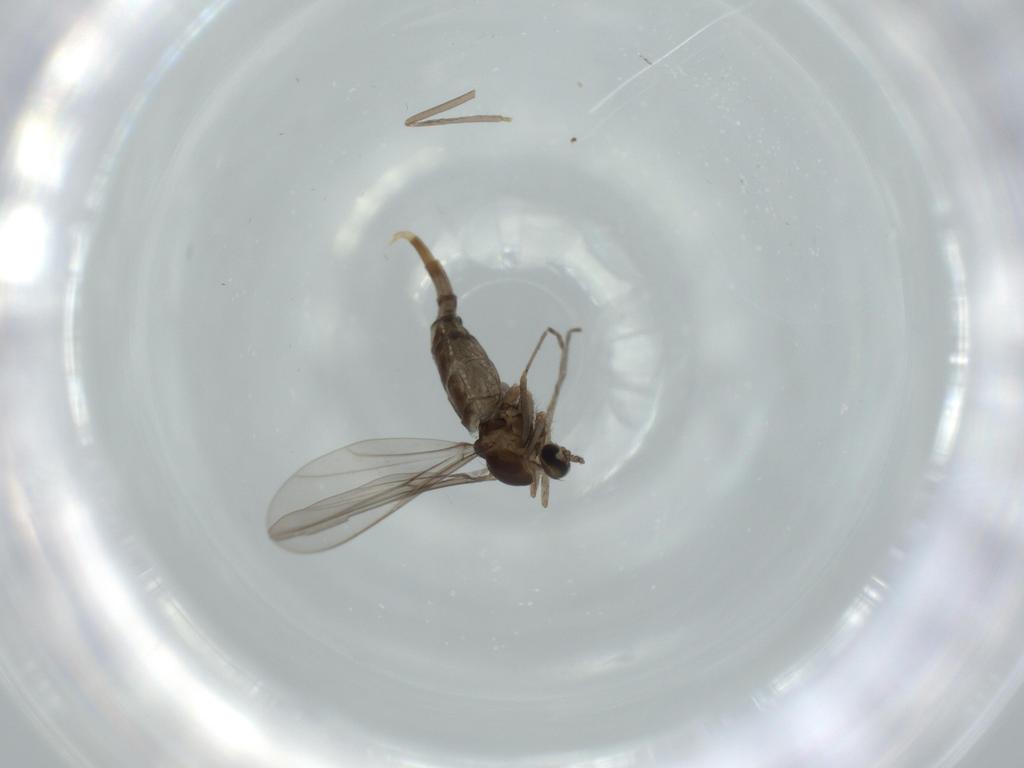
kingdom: Animalia
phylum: Arthropoda
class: Insecta
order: Diptera
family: Cecidomyiidae
